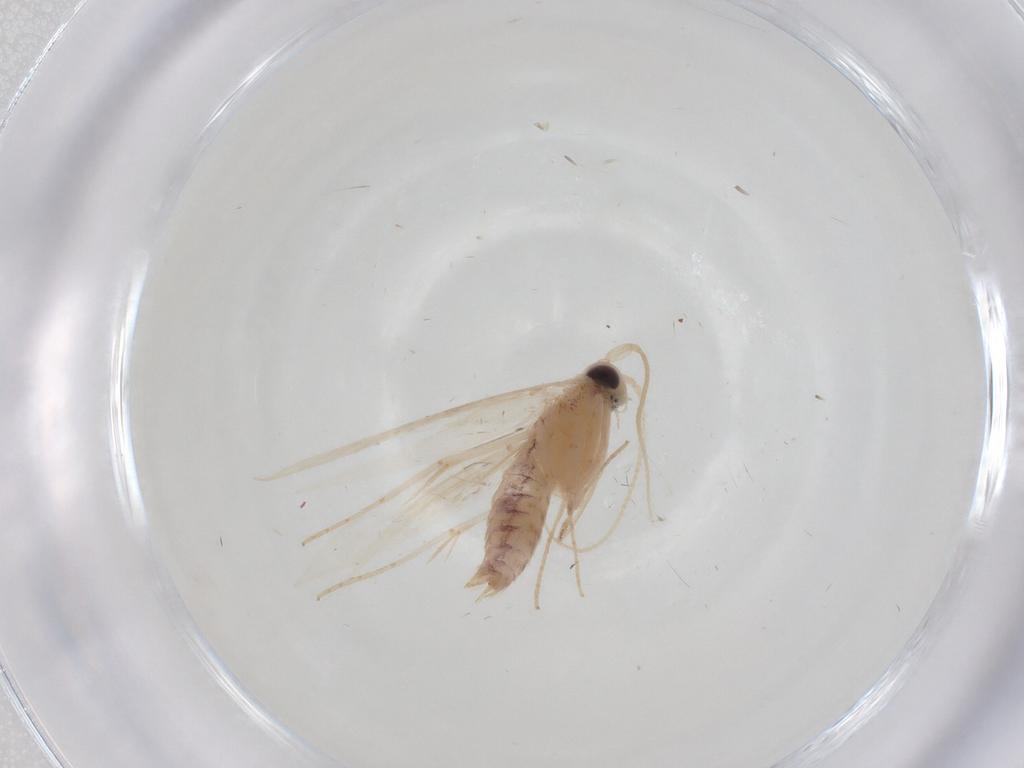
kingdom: Animalia
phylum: Arthropoda
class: Insecta
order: Lepidoptera
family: Lyonetiidae
